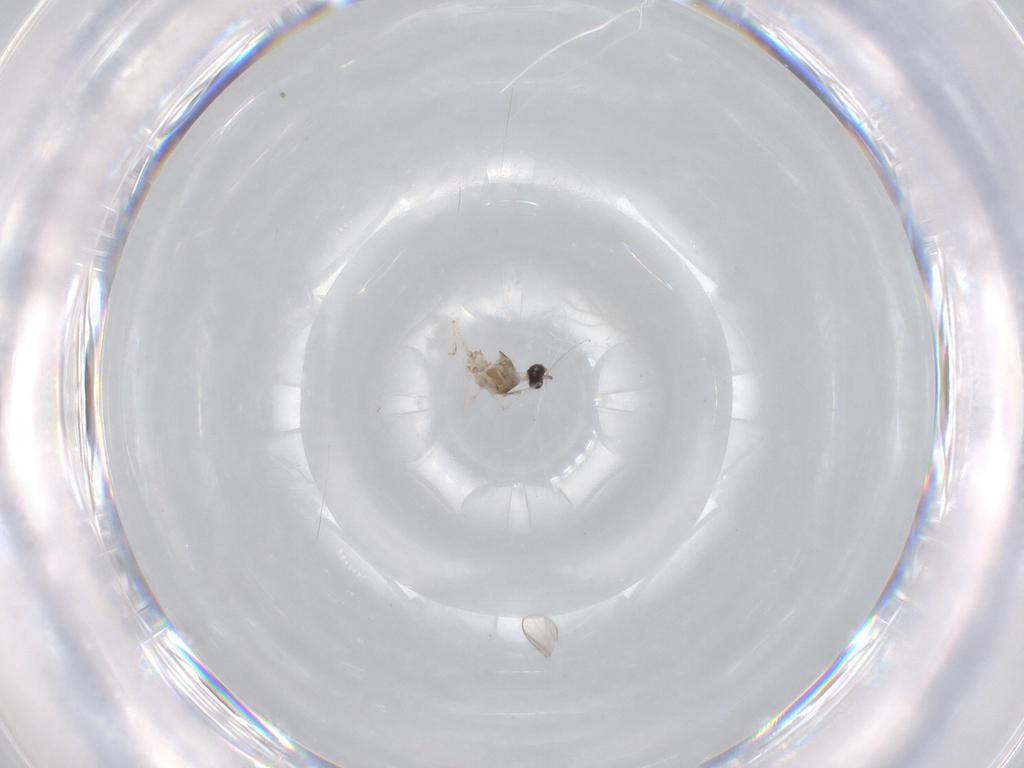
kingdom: Animalia
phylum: Arthropoda
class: Insecta
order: Diptera
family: Cecidomyiidae
